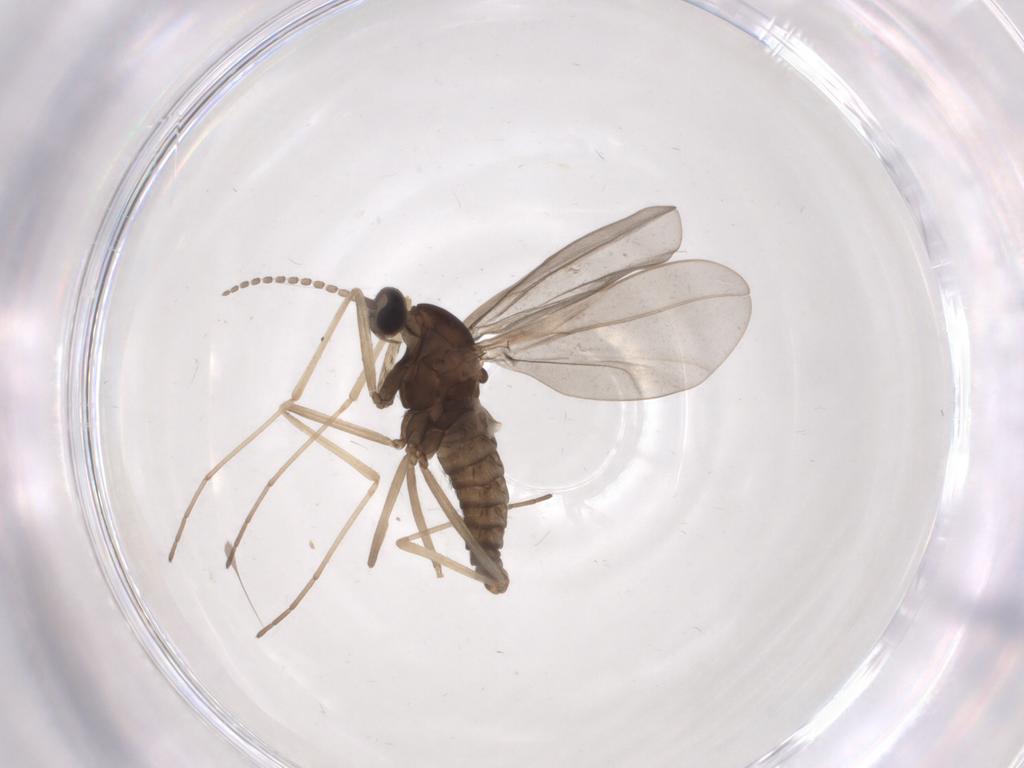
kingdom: Animalia
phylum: Arthropoda
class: Insecta
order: Diptera
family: Cecidomyiidae
